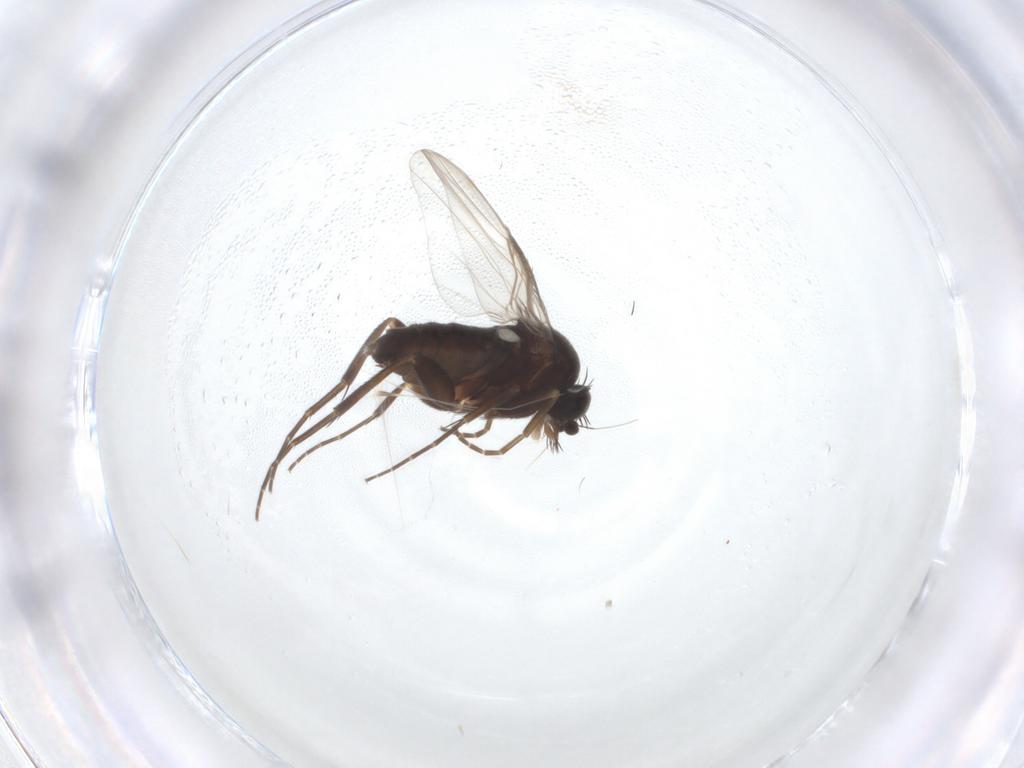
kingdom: Animalia
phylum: Arthropoda
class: Insecta
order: Diptera
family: Phoridae
